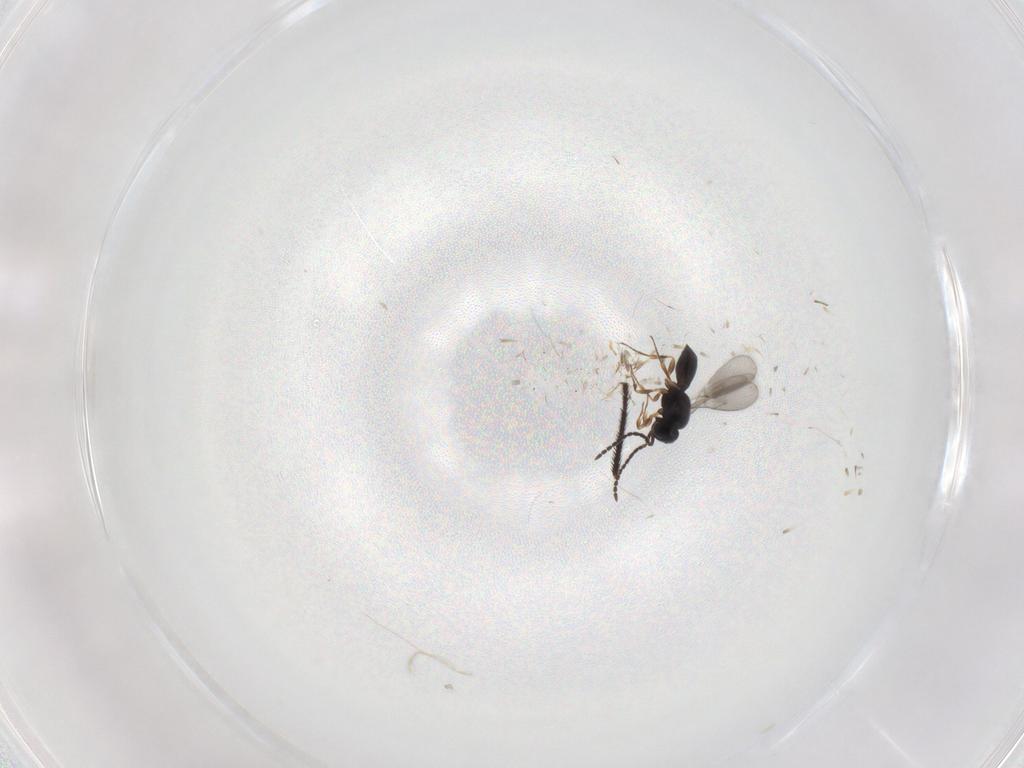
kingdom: Animalia
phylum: Arthropoda
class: Insecta
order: Hymenoptera
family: Scelionidae
